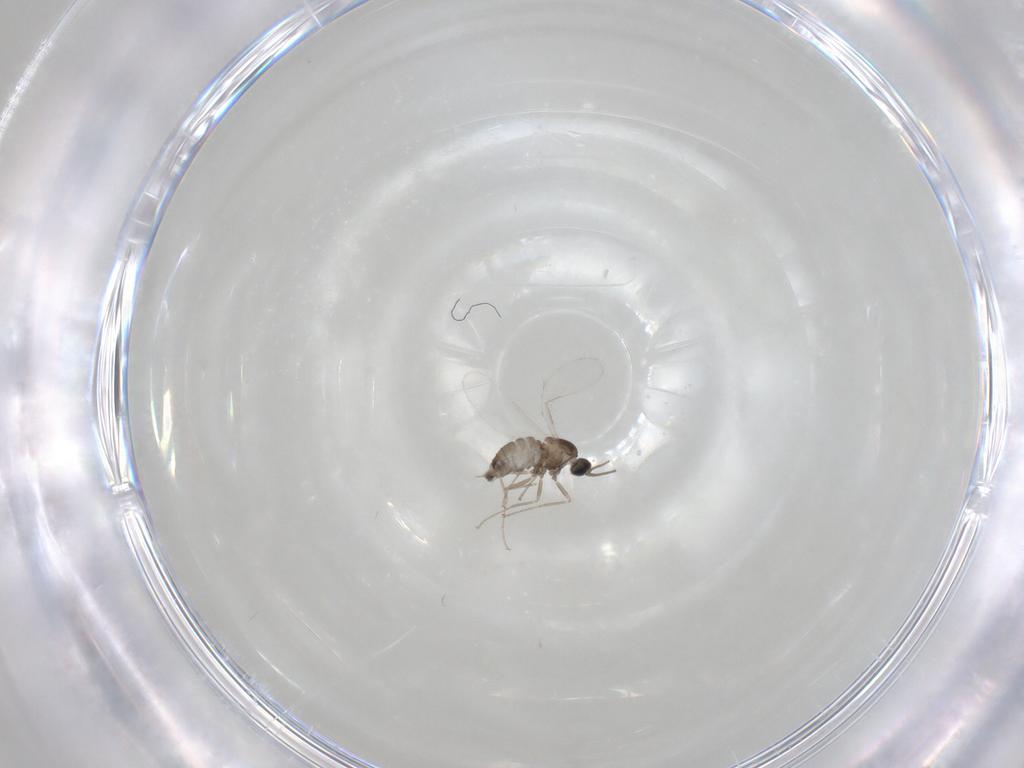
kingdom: Animalia
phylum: Arthropoda
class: Insecta
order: Diptera
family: Cecidomyiidae
